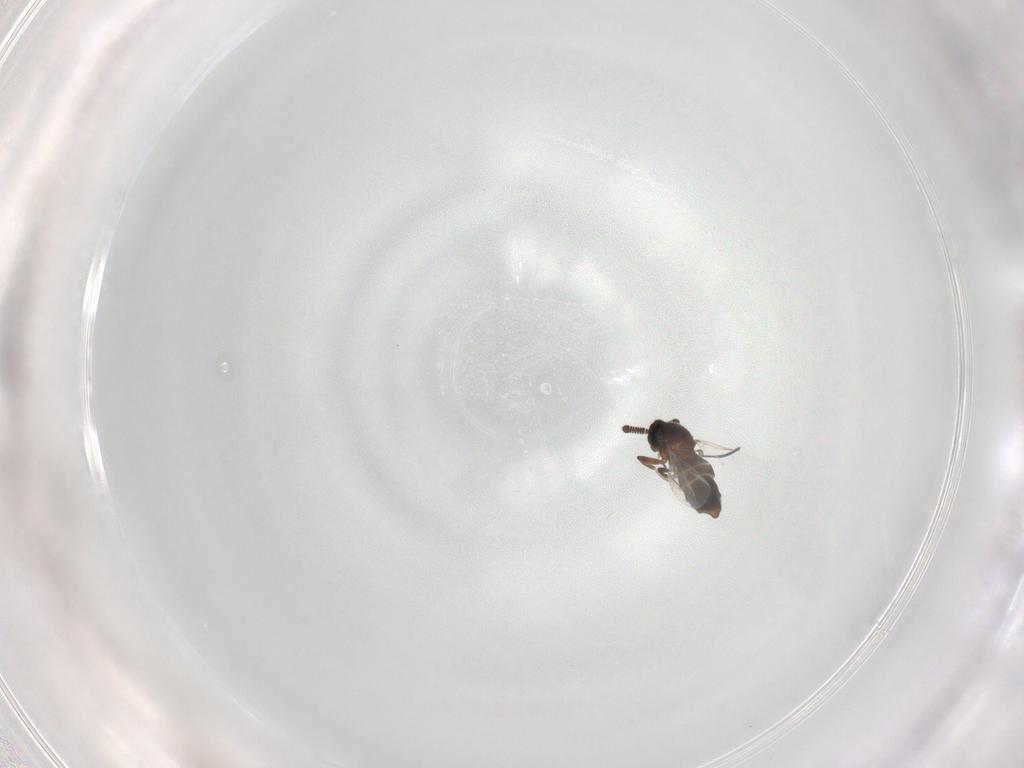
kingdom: Animalia
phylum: Arthropoda
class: Insecta
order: Diptera
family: Scatopsidae
